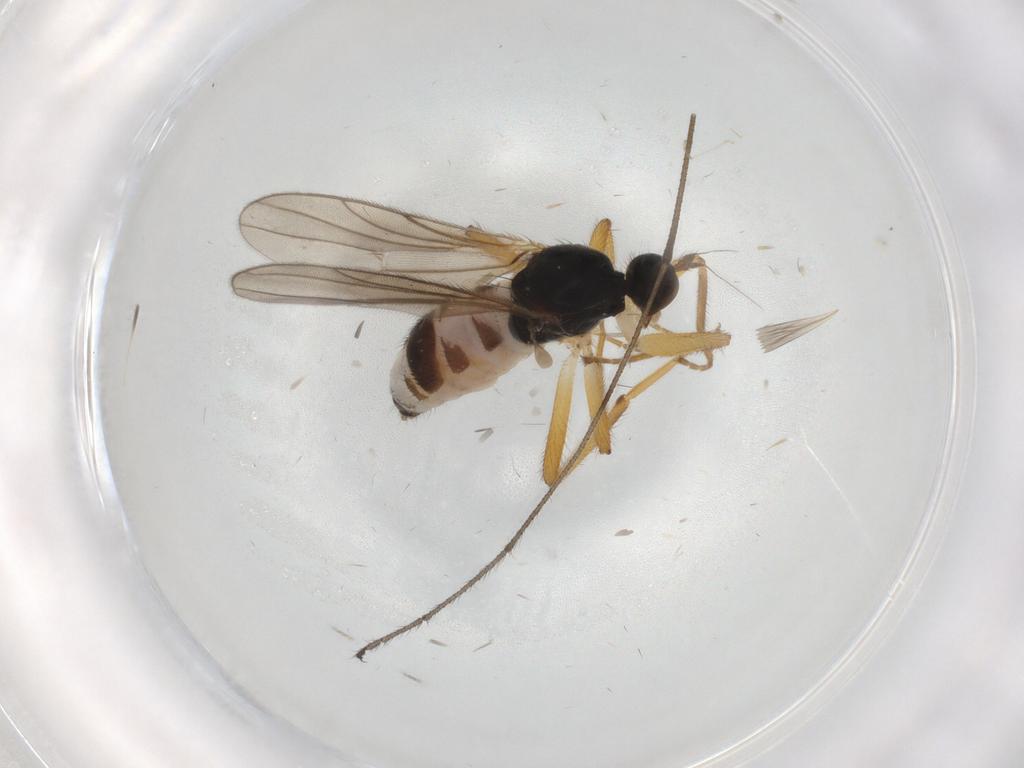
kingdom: Animalia
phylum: Arthropoda
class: Insecta
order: Diptera
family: Hybotidae
